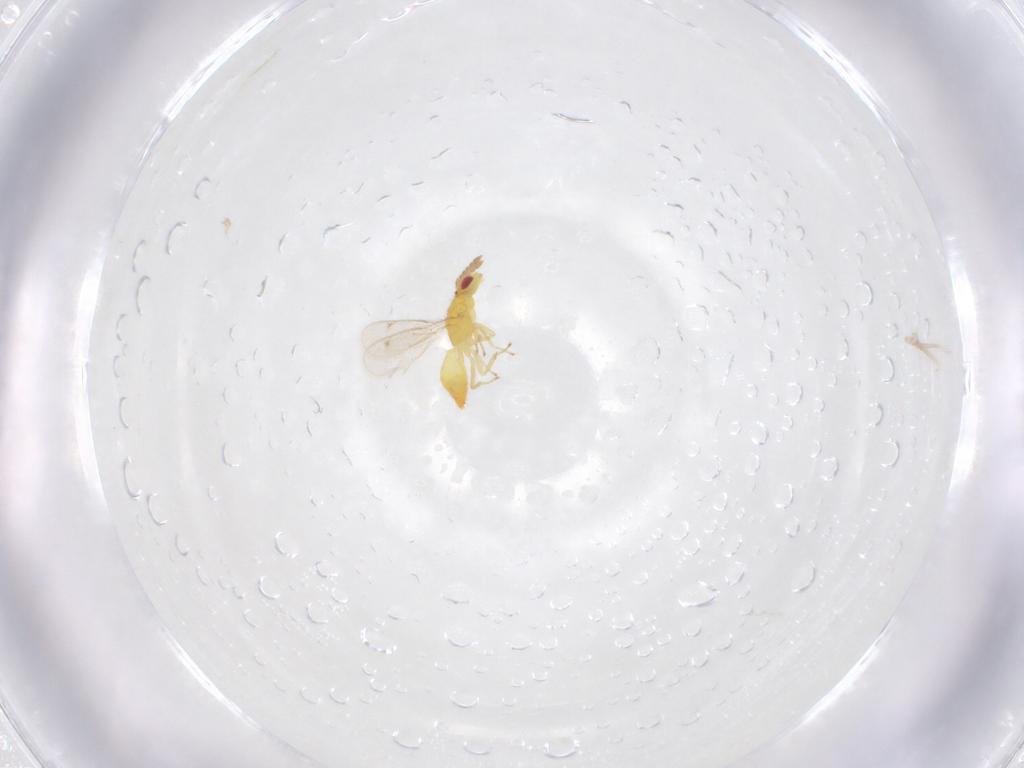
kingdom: Animalia
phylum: Arthropoda
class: Insecta
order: Hymenoptera
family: Eulophidae
